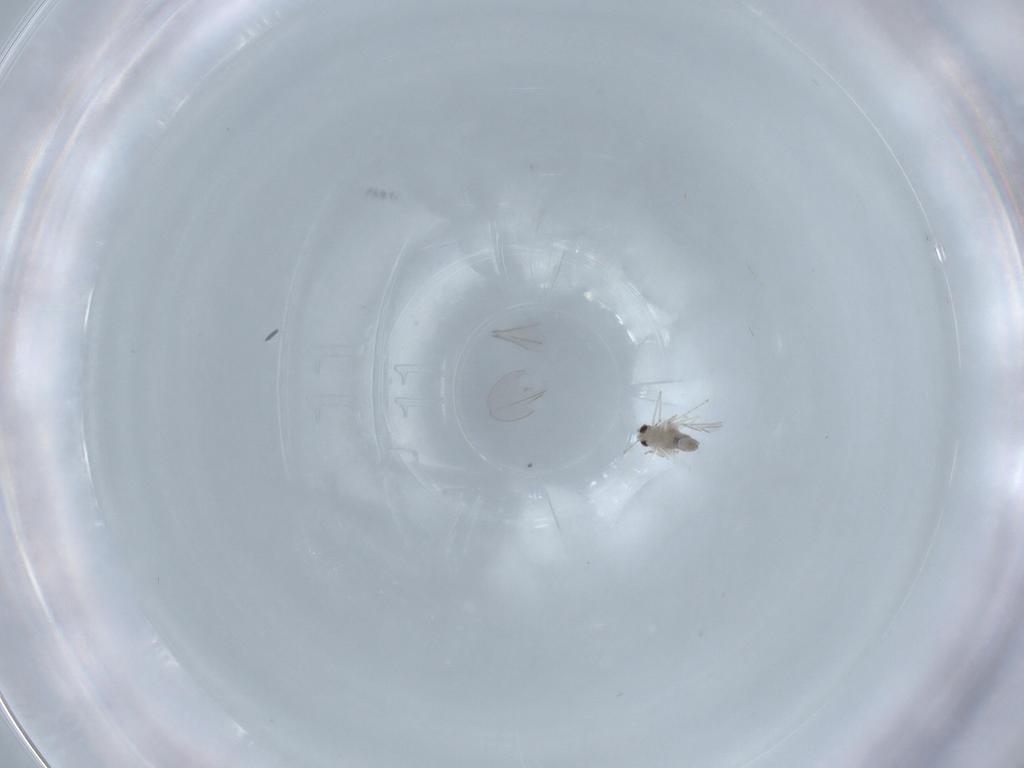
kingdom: Animalia
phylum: Arthropoda
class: Insecta
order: Diptera
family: Cecidomyiidae
